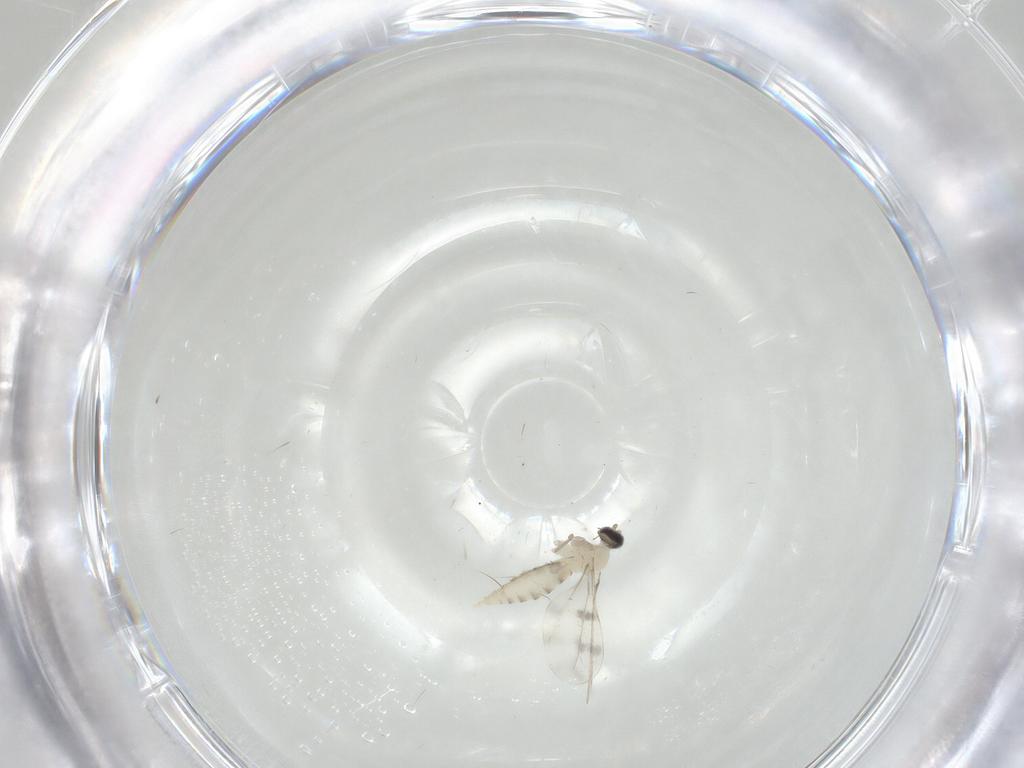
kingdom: Animalia
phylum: Arthropoda
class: Insecta
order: Diptera
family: Cecidomyiidae
